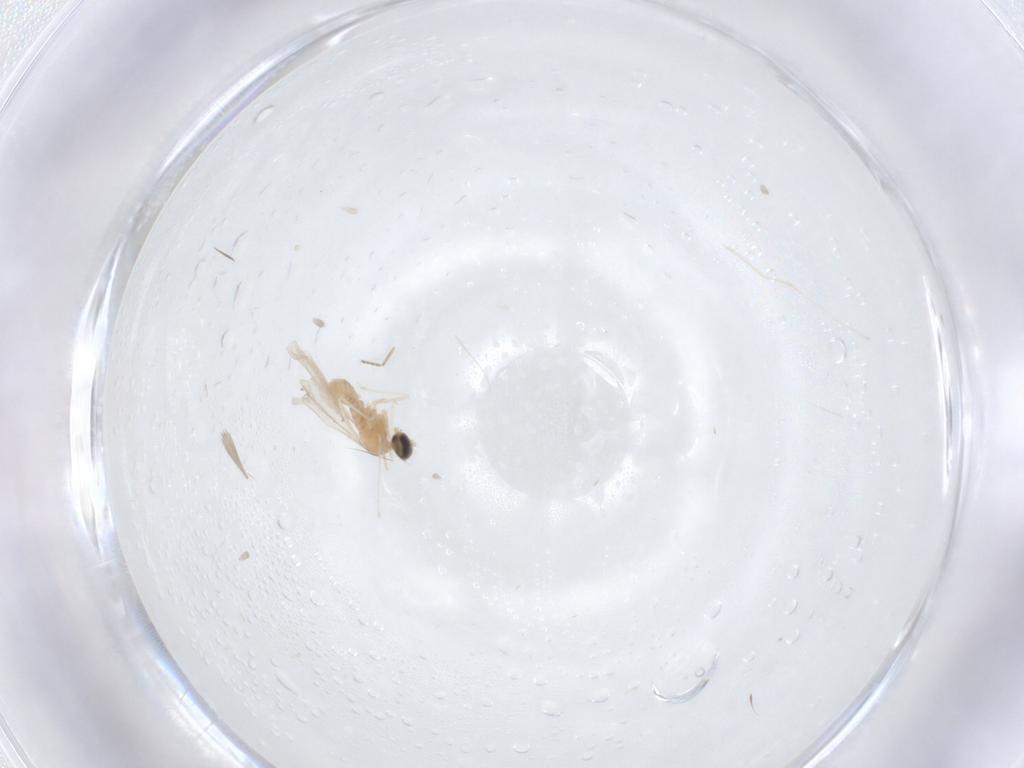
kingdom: Animalia
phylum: Arthropoda
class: Insecta
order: Diptera
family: Cecidomyiidae
